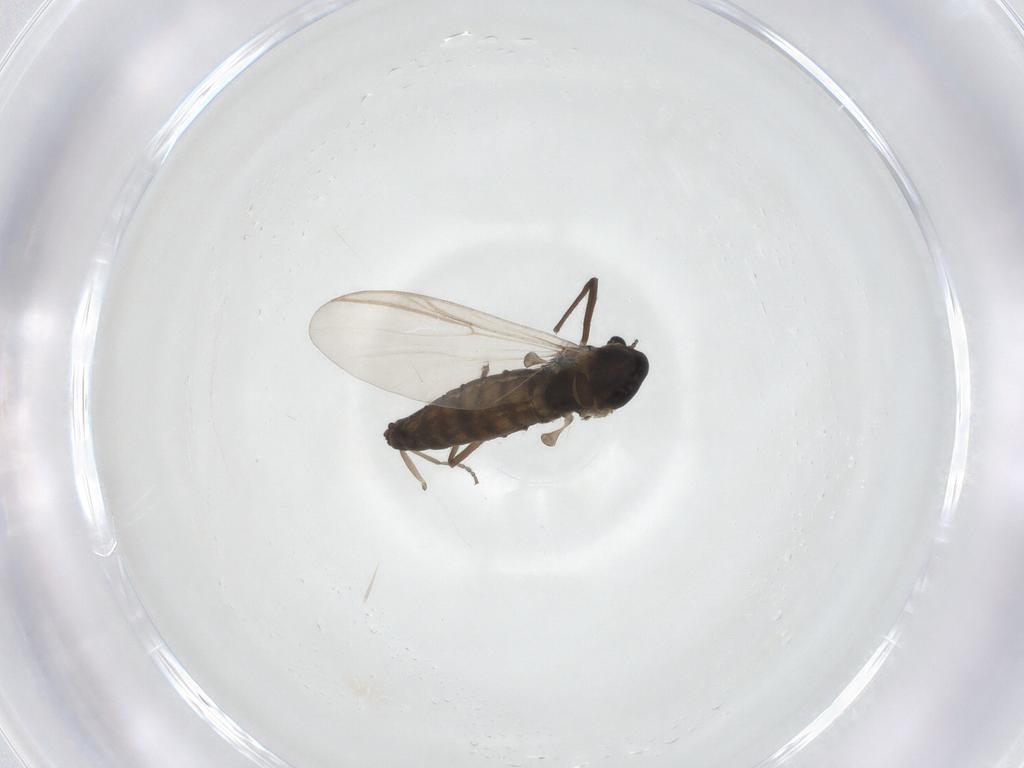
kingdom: Animalia
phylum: Arthropoda
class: Insecta
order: Diptera
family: Chironomidae
